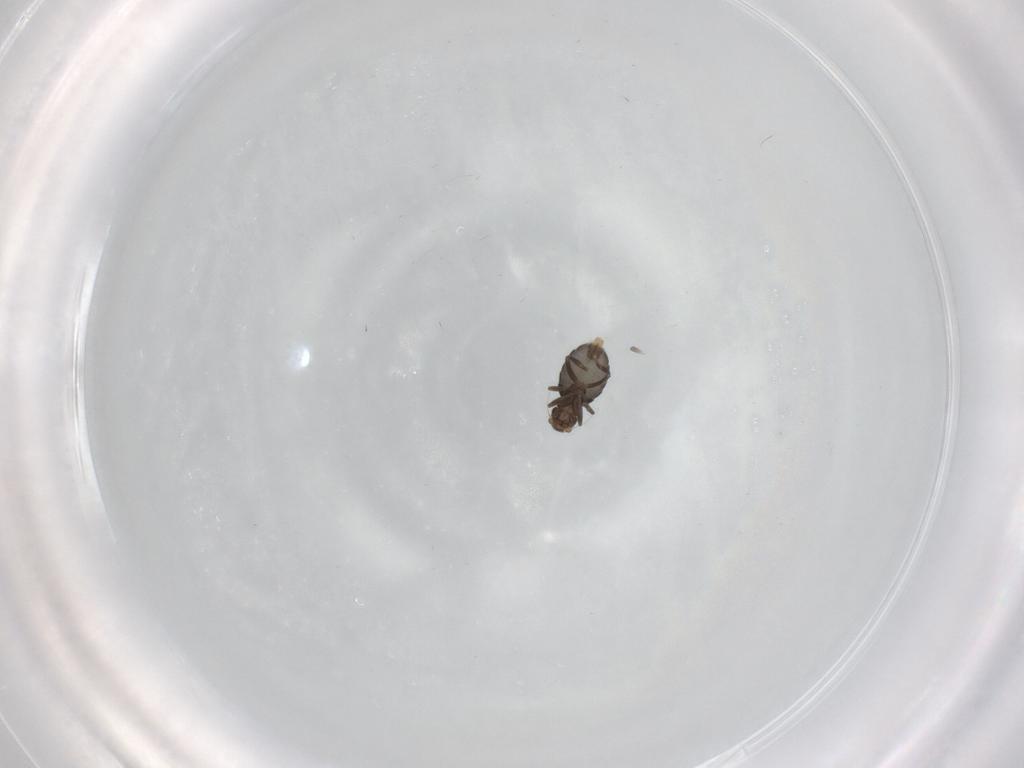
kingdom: Animalia
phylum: Arthropoda
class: Insecta
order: Diptera
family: Phoridae
